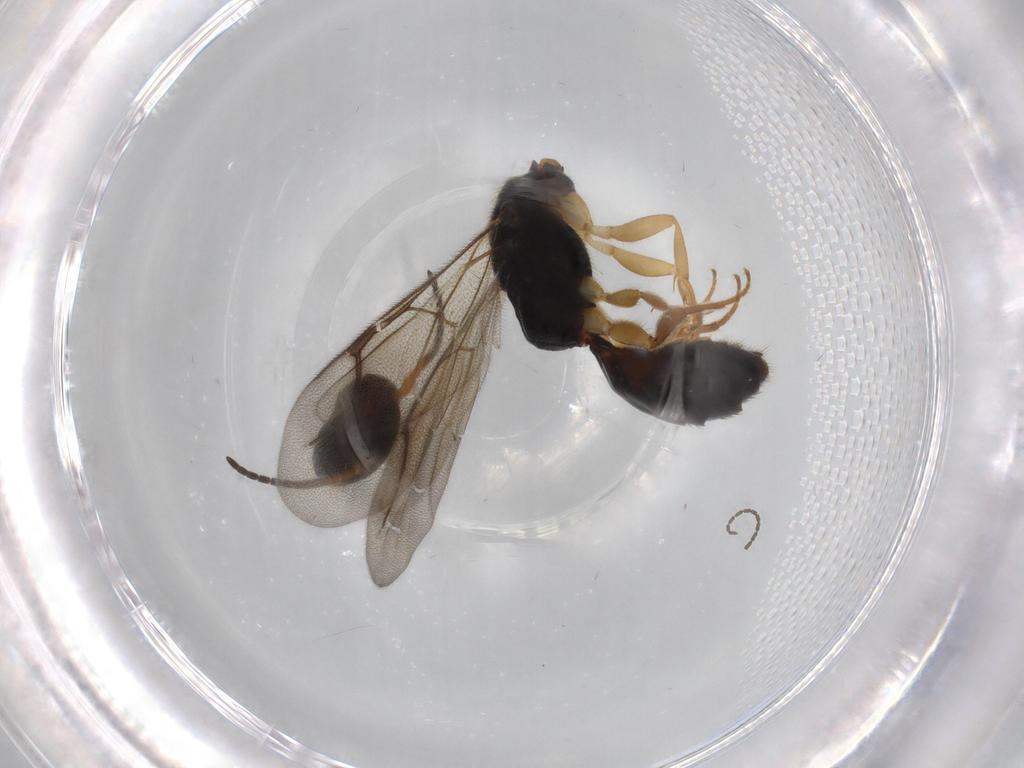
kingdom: Animalia
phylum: Arthropoda
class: Insecta
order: Hymenoptera
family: Bethylidae
